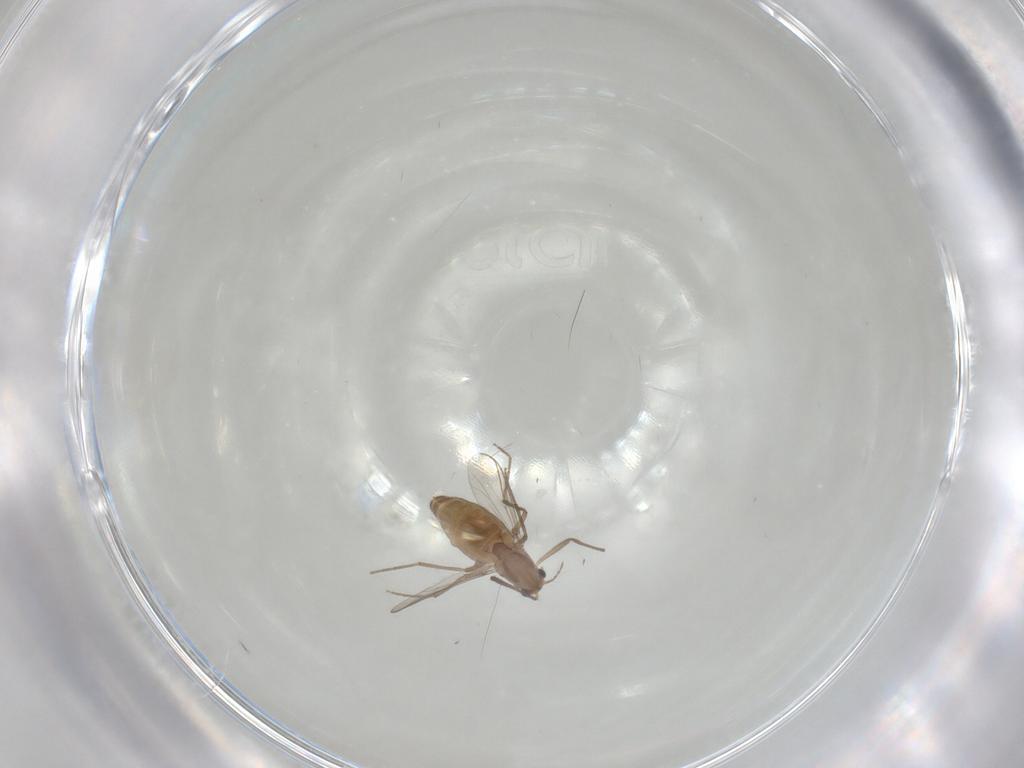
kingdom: Animalia
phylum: Arthropoda
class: Insecta
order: Diptera
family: Chironomidae
